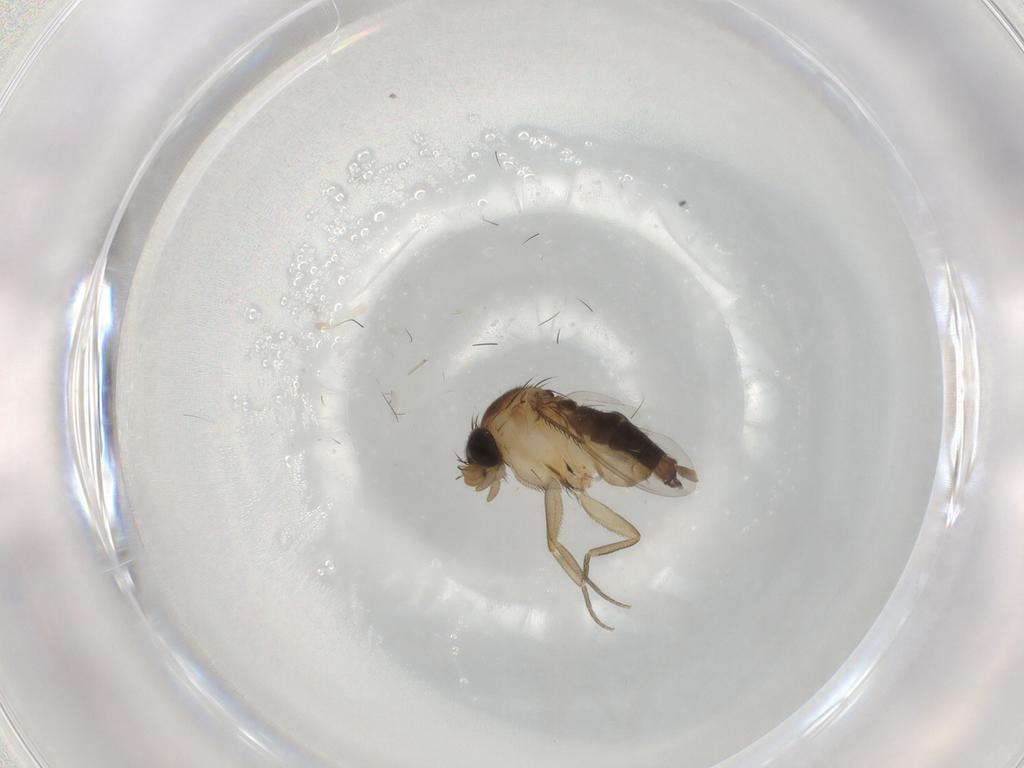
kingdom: Animalia
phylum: Arthropoda
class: Insecta
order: Diptera
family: Phoridae
